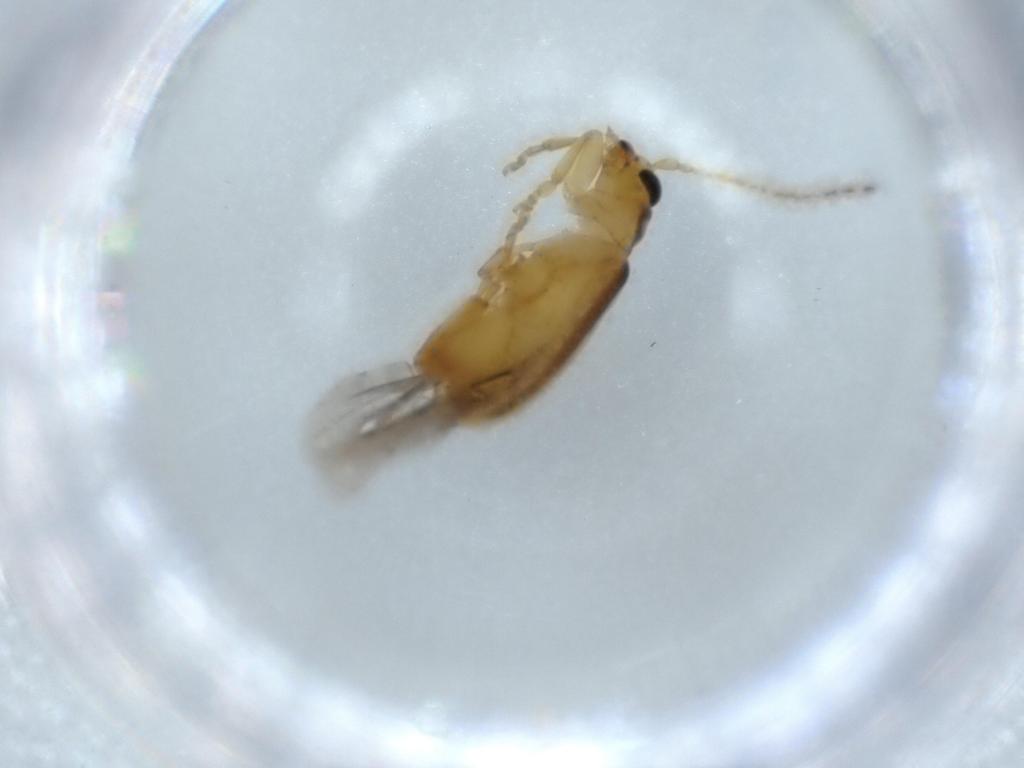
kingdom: Animalia
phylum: Arthropoda
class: Insecta
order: Coleoptera
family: Chrysomelidae
